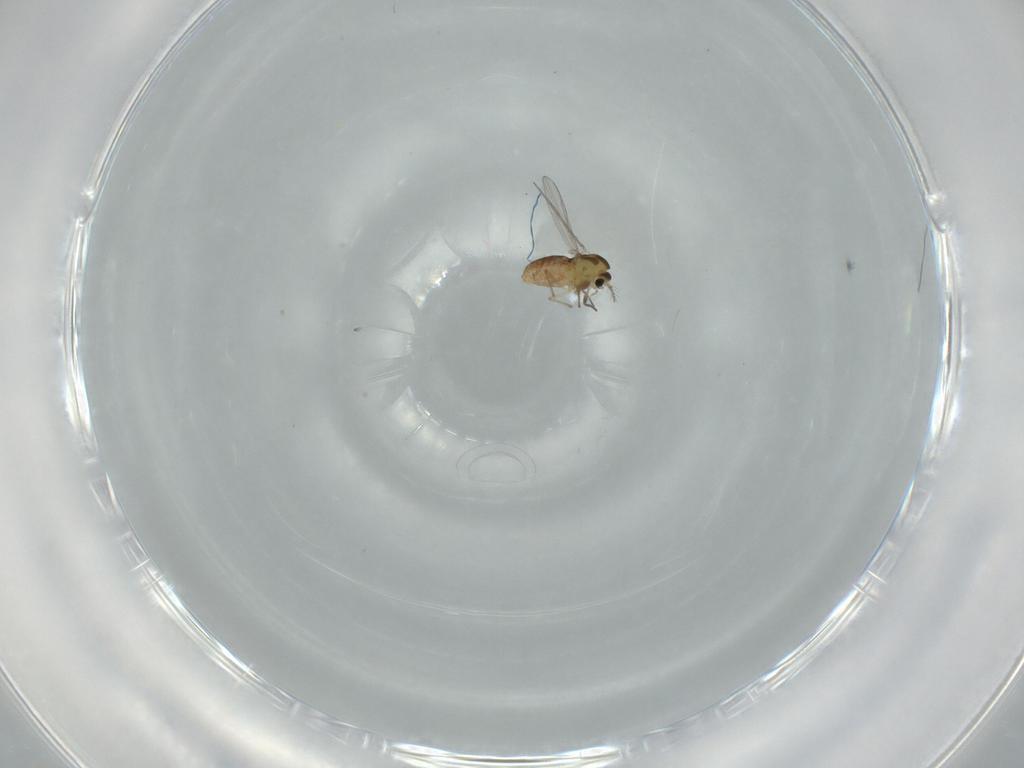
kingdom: Animalia
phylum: Arthropoda
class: Insecta
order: Diptera
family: Chironomidae
